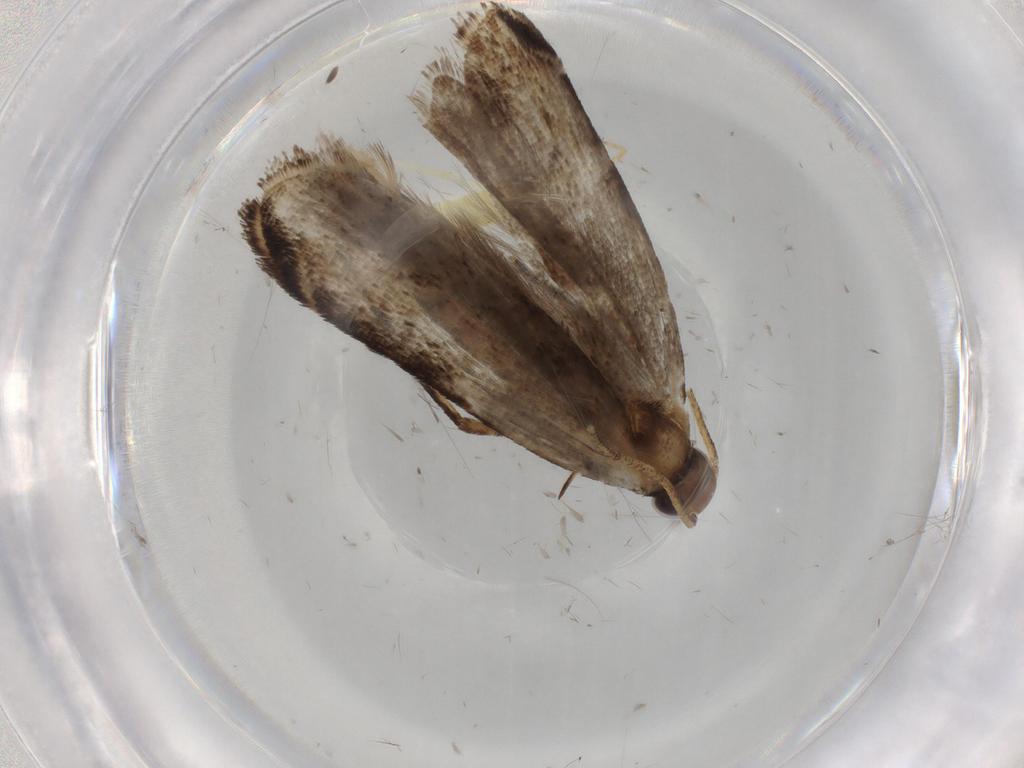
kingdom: Animalia
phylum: Arthropoda
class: Insecta
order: Lepidoptera
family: Gelechiidae
